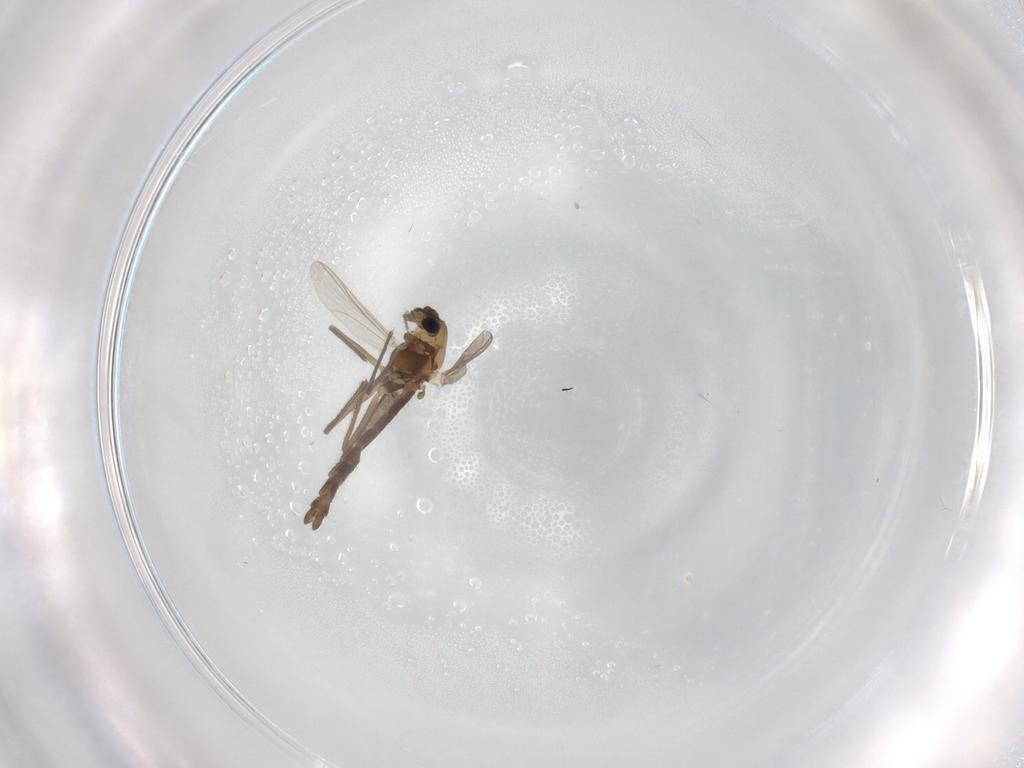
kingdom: Animalia
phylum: Arthropoda
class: Insecta
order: Diptera
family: Chironomidae
